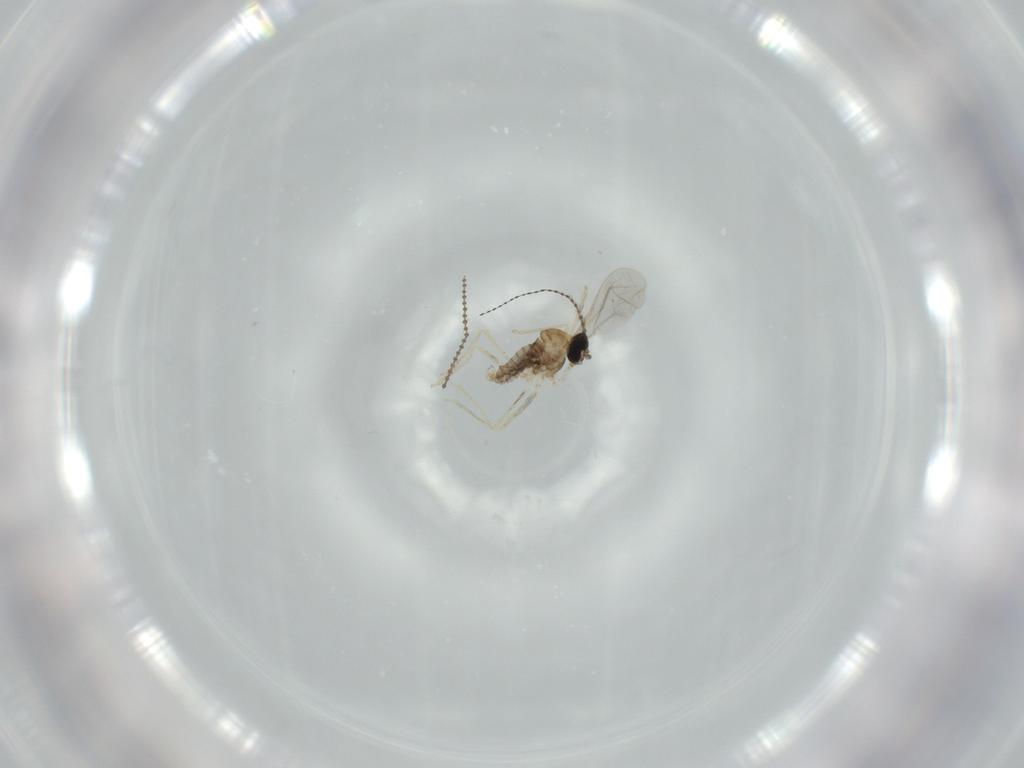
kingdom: Animalia
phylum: Arthropoda
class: Insecta
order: Diptera
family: Cecidomyiidae
